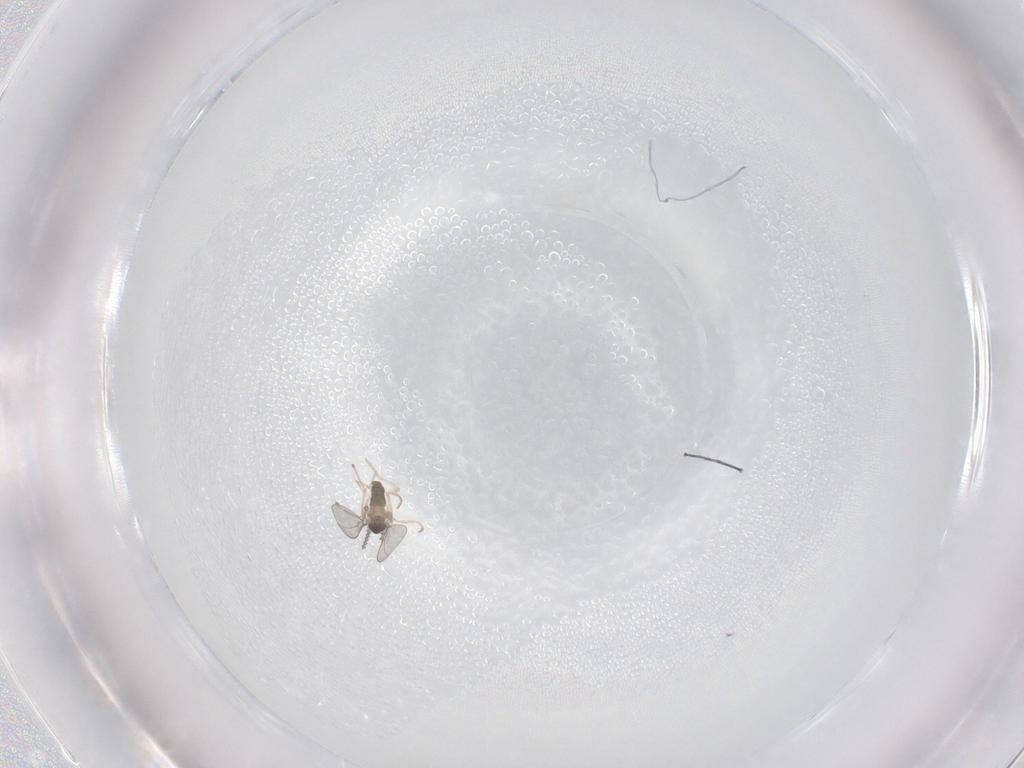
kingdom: Animalia
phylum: Arthropoda
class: Insecta
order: Diptera
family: Cecidomyiidae
